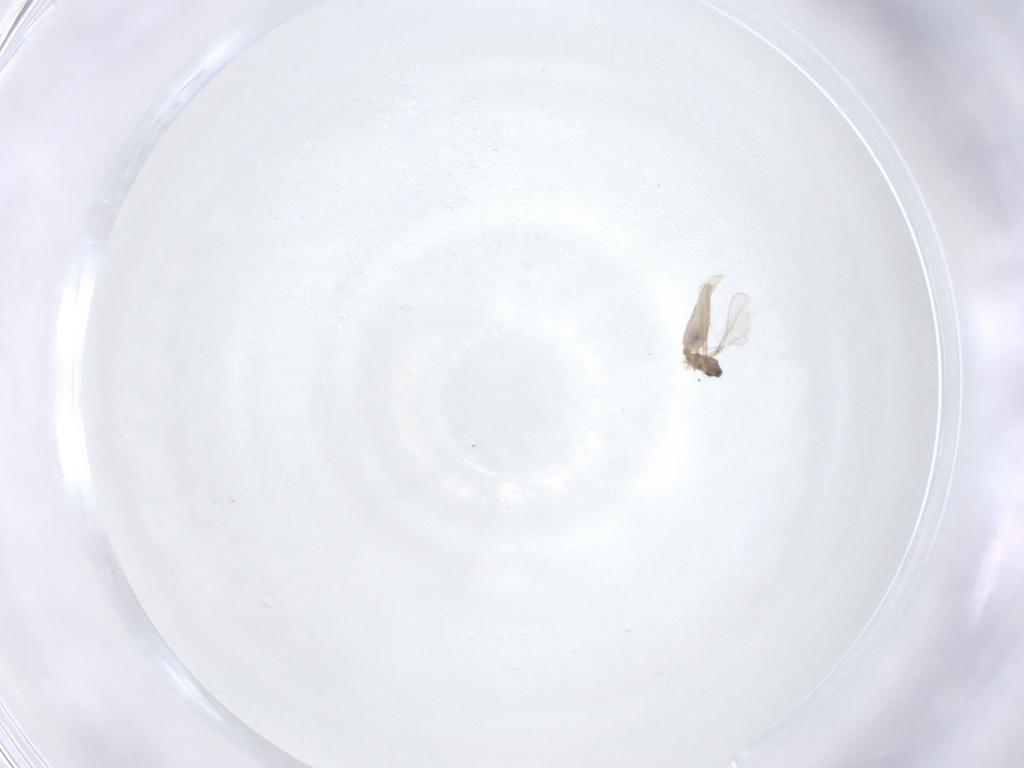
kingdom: Animalia
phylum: Arthropoda
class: Insecta
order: Diptera
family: Cecidomyiidae
